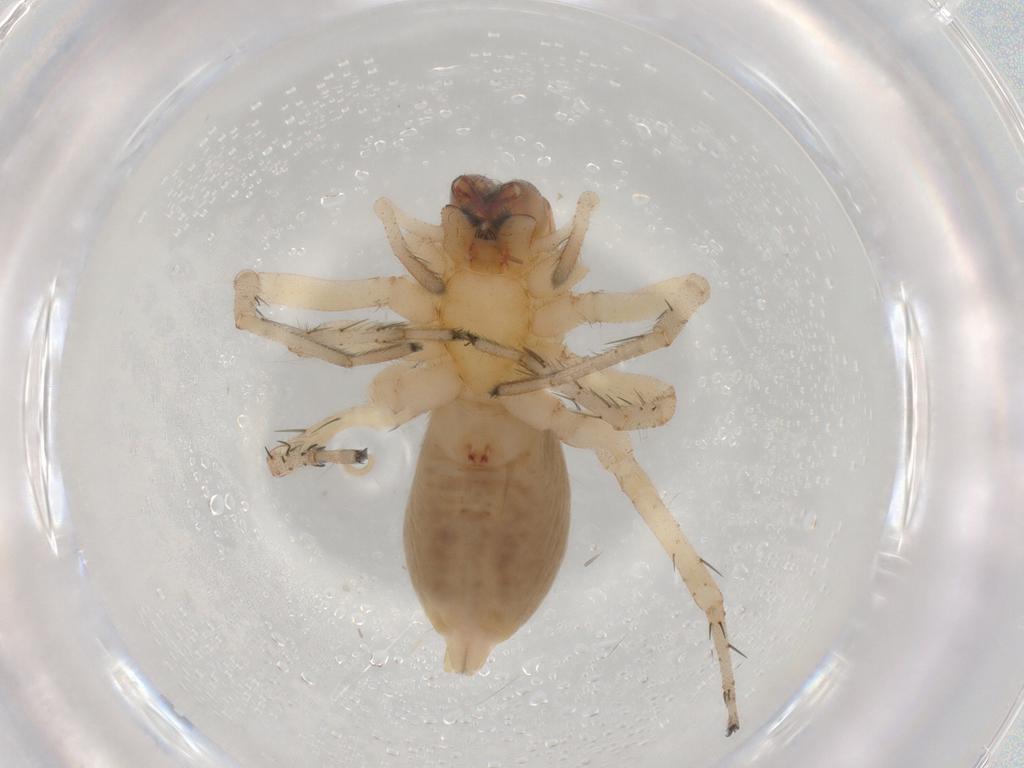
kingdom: Animalia
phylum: Arthropoda
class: Arachnida
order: Araneae
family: Anyphaenidae
